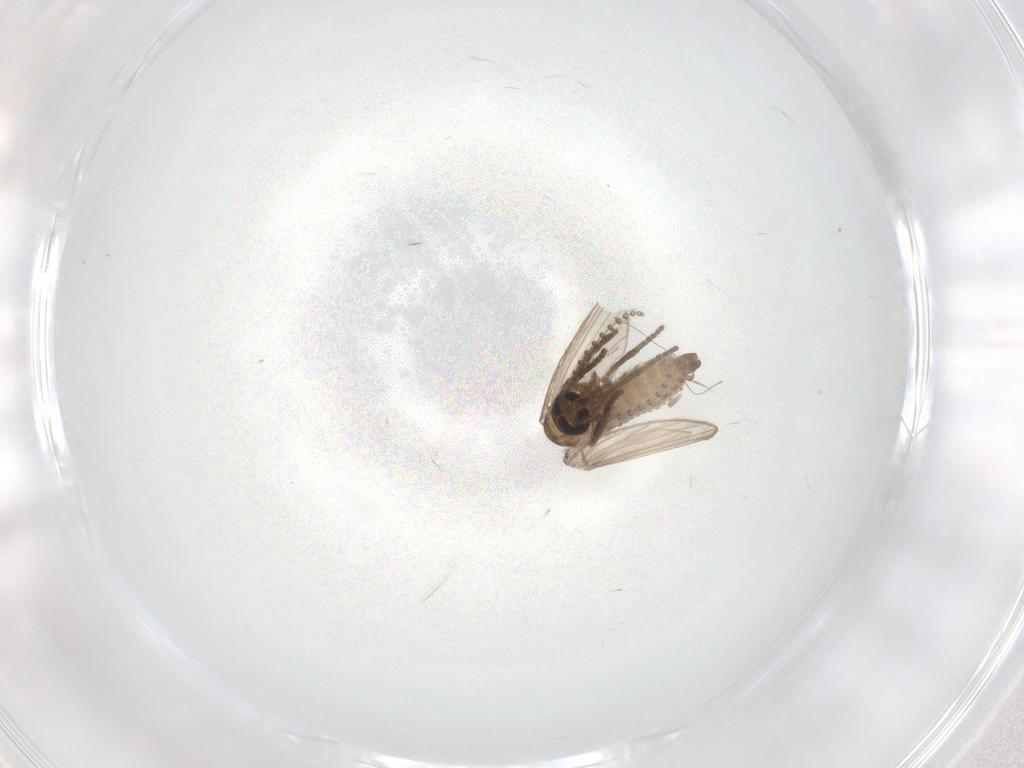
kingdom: Animalia
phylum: Arthropoda
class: Insecta
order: Diptera
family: Psychodidae
